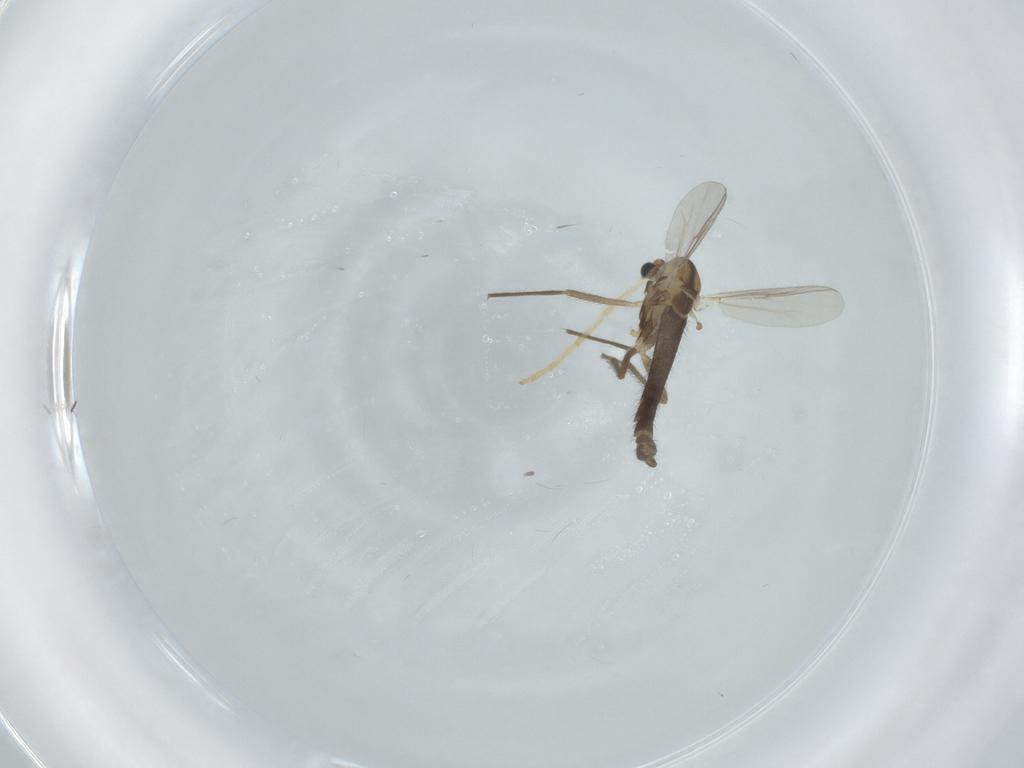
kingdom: Animalia
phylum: Arthropoda
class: Insecta
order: Diptera
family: Chironomidae
